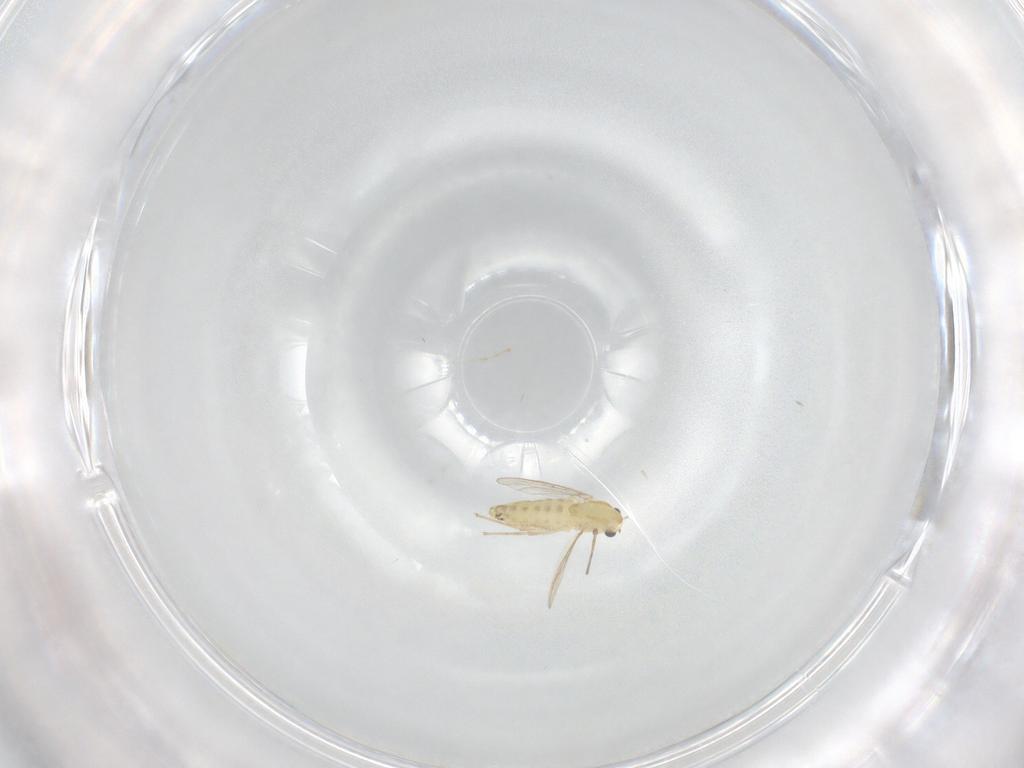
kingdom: Animalia
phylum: Arthropoda
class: Insecta
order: Diptera
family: Chironomidae
